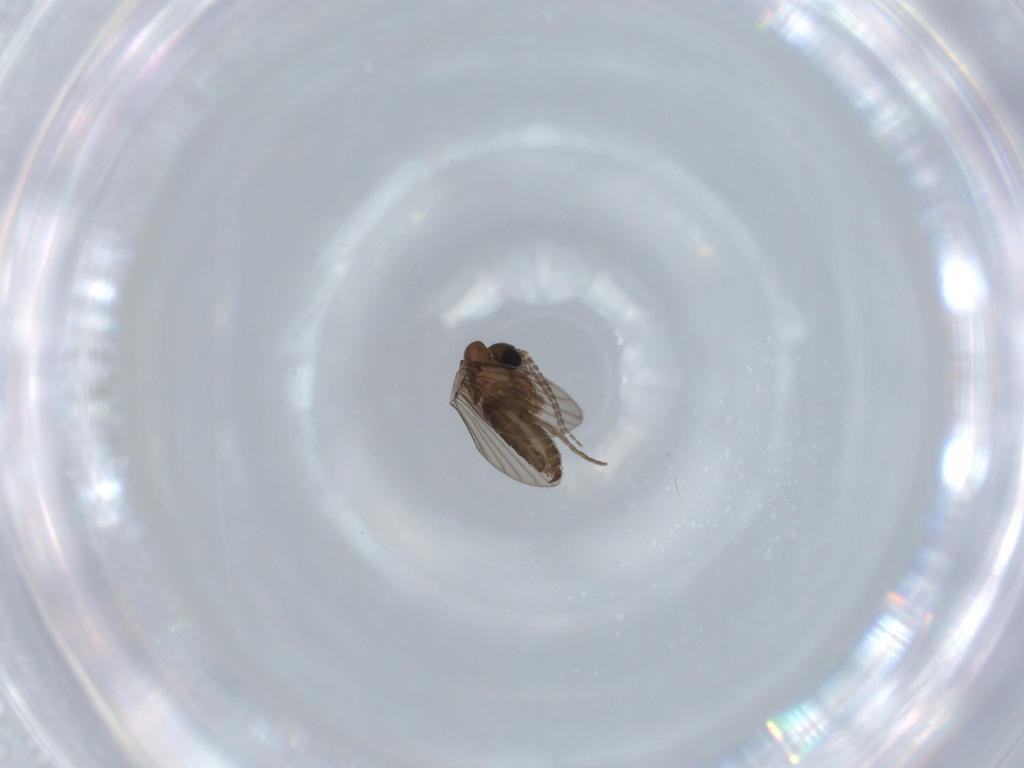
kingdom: Animalia
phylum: Arthropoda
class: Insecta
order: Diptera
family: Psychodidae
